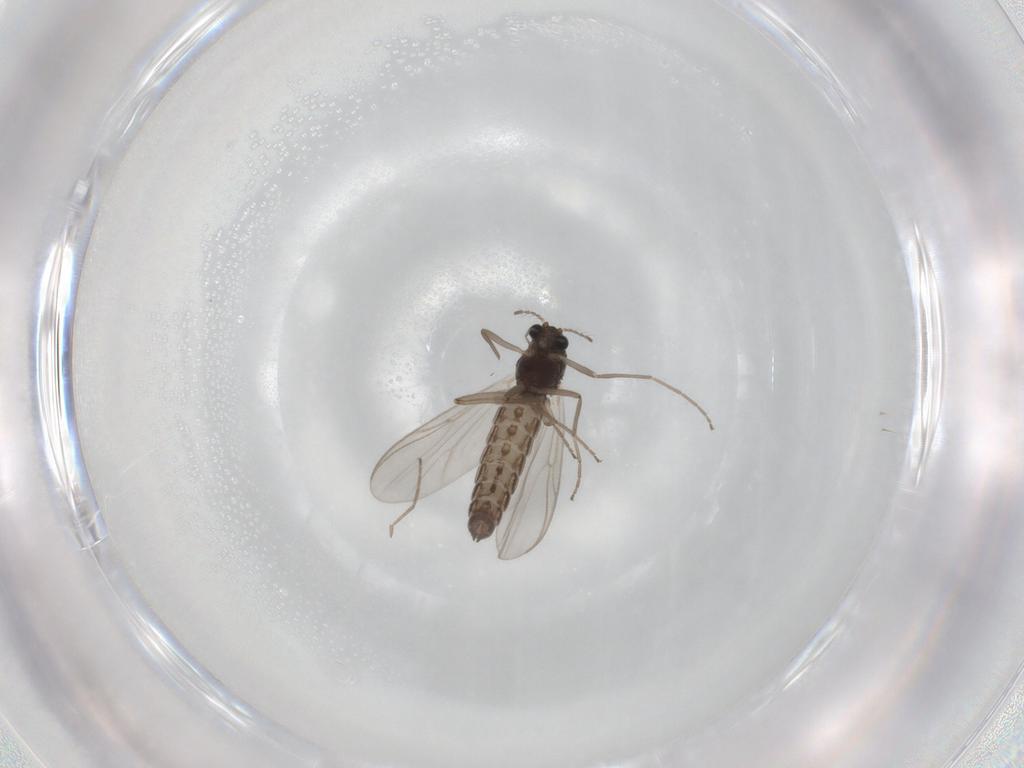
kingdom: Animalia
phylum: Arthropoda
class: Insecta
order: Diptera
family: Chironomidae
